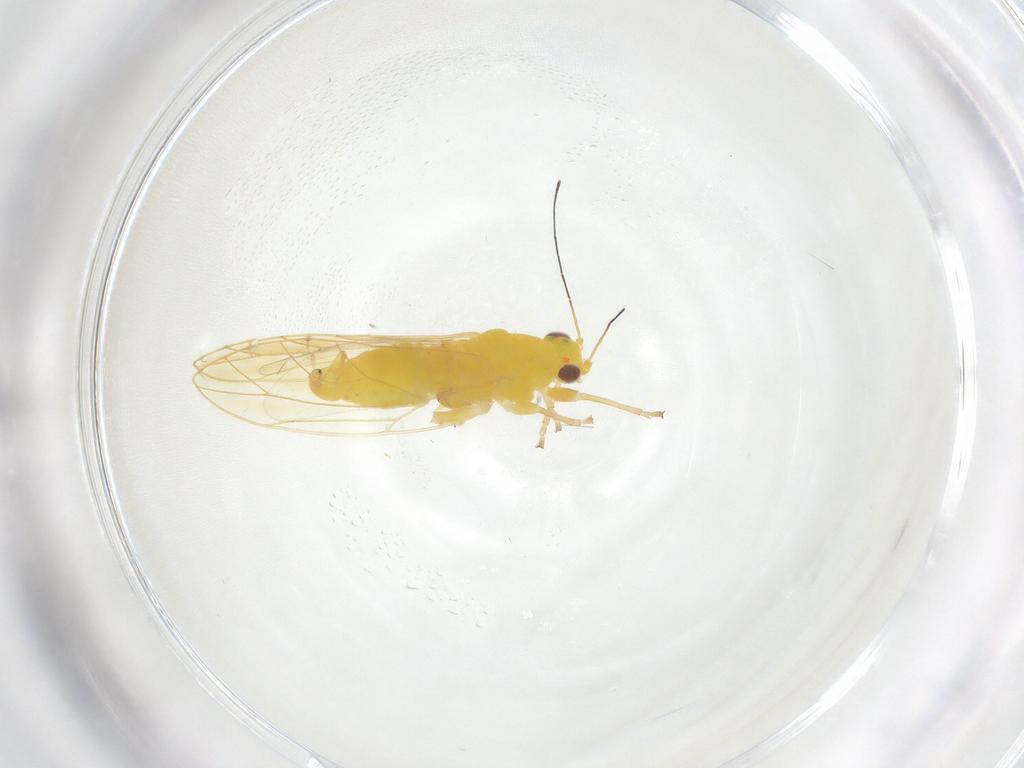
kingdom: Animalia
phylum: Arthropoda
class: Insecta
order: Hemiptera
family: Triozidae
